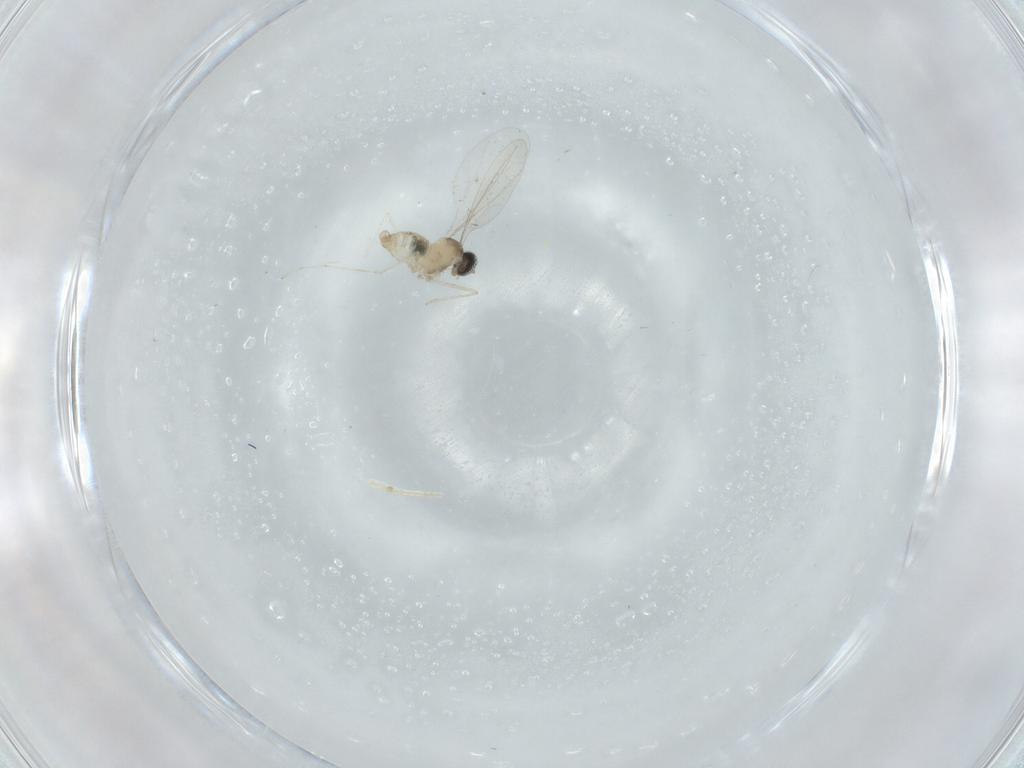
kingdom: Animalia
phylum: Arthropoda
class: Insecta
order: Diptera
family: Cecidomyiidae
